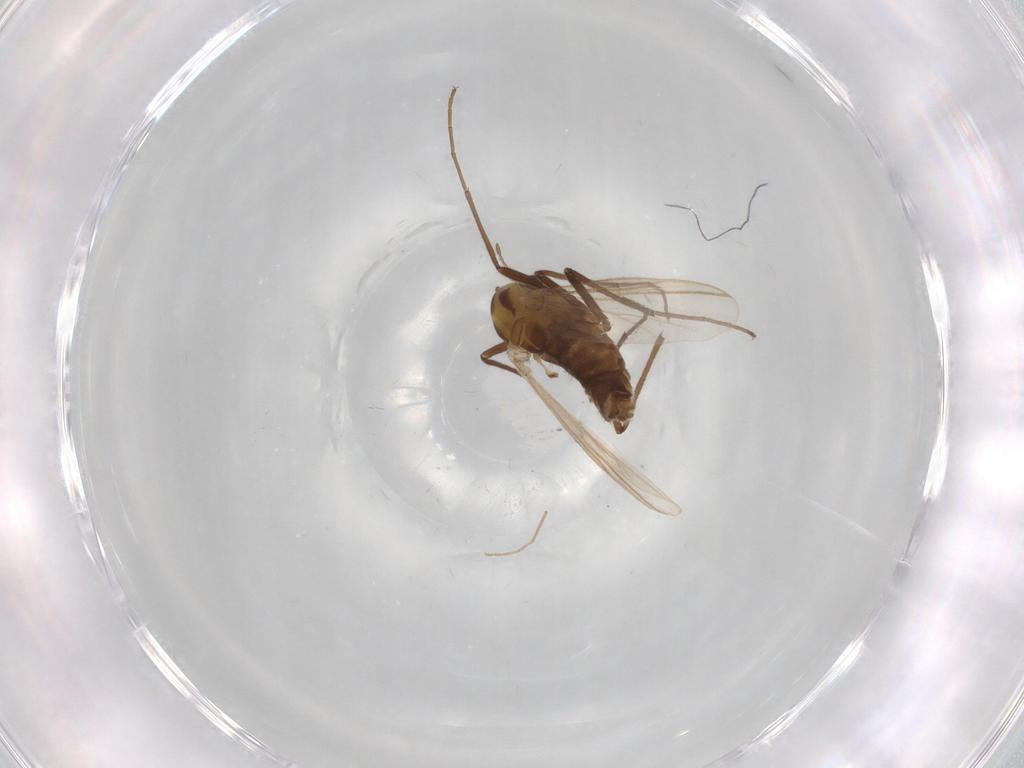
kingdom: Animalia
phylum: Arthropoda
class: Insecta
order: Diptera
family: Chironomidae
